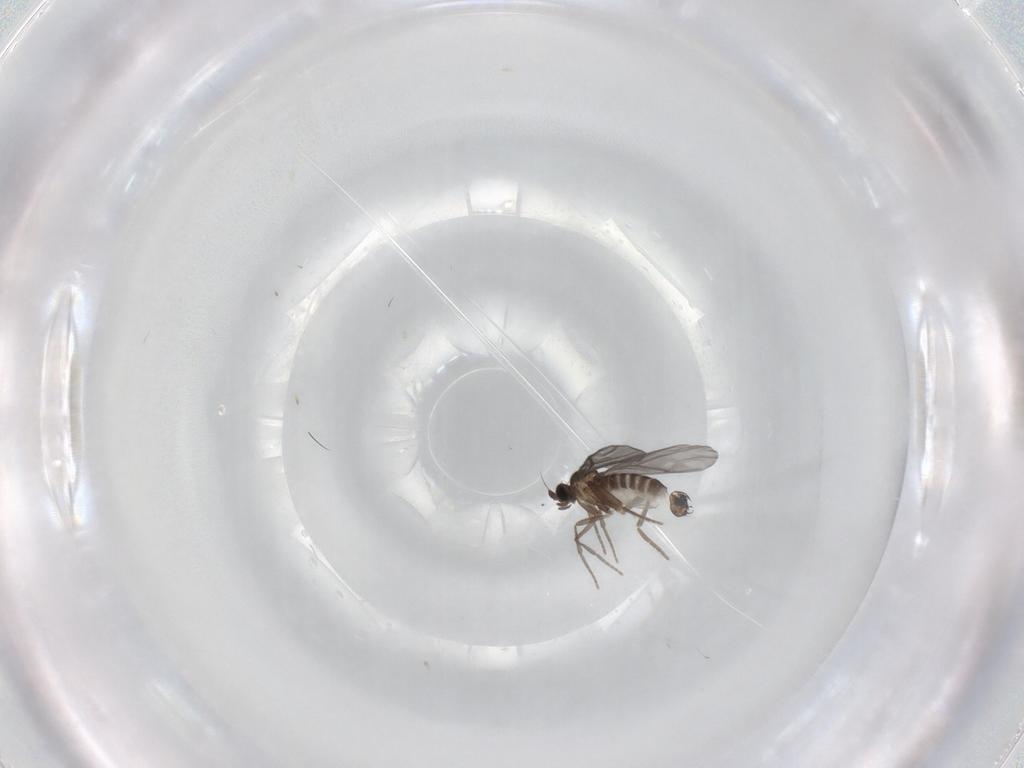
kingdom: Animalia
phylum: Arthropoda
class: Insecta
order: Diptera
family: Phoridae
